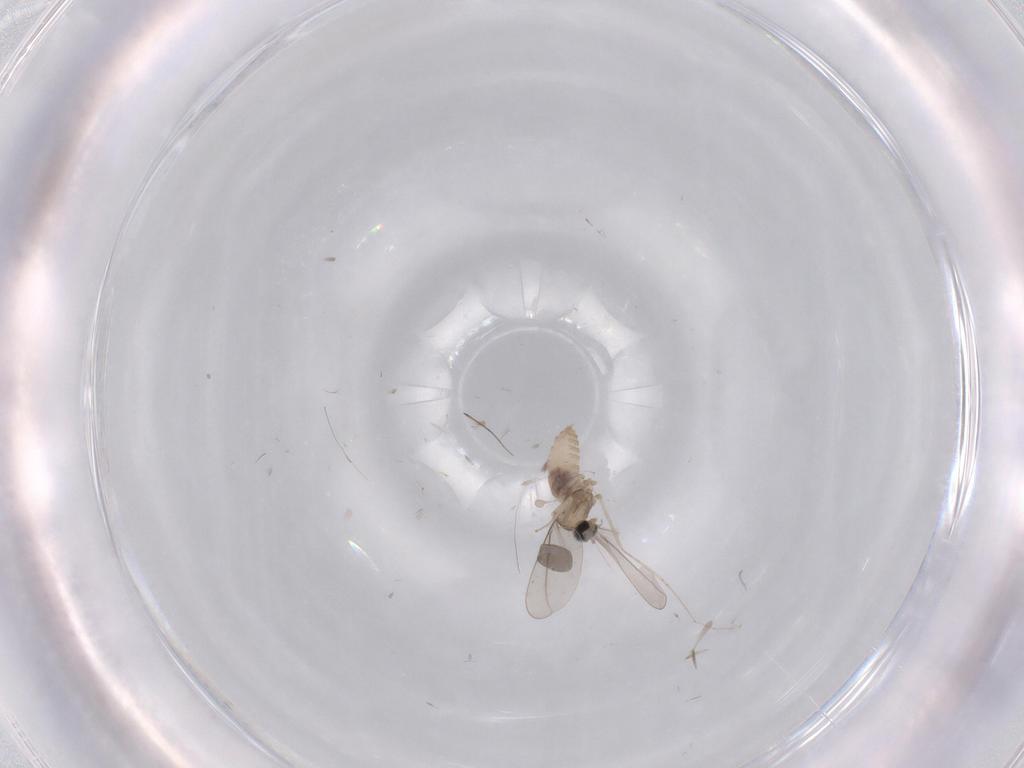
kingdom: Animalia
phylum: Arthropoda
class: Insecta
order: Diptera
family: Cecidomyiidae
